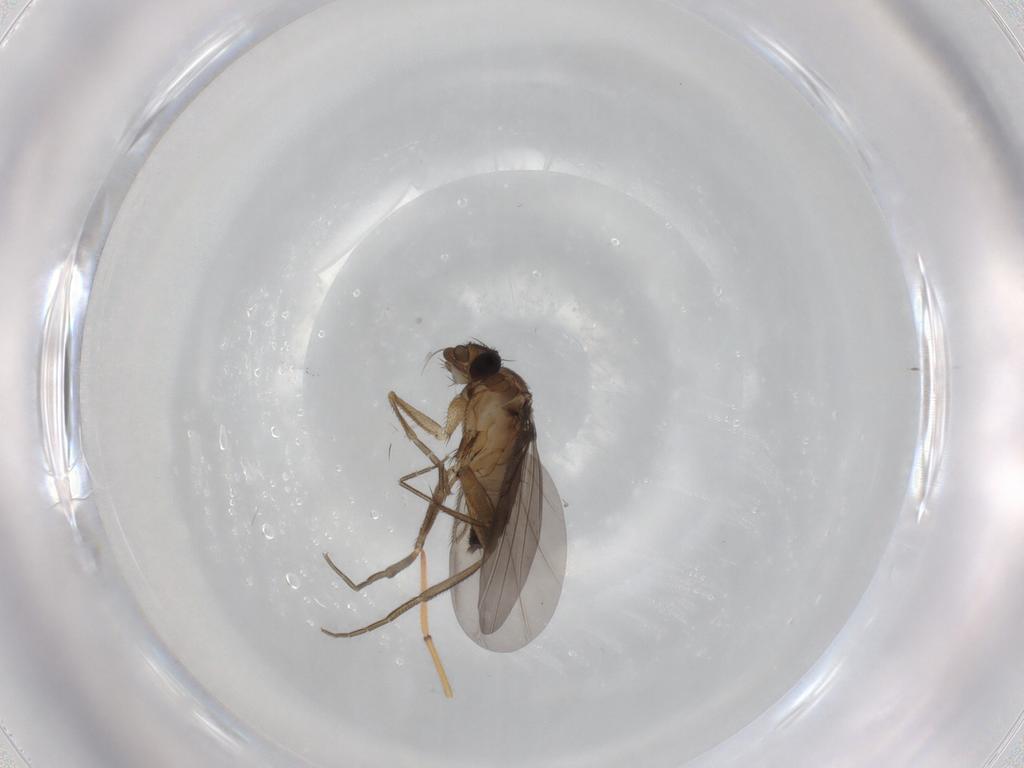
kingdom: Animalia
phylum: Arthropoda
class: Insecta
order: Diptera
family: Phoridae
